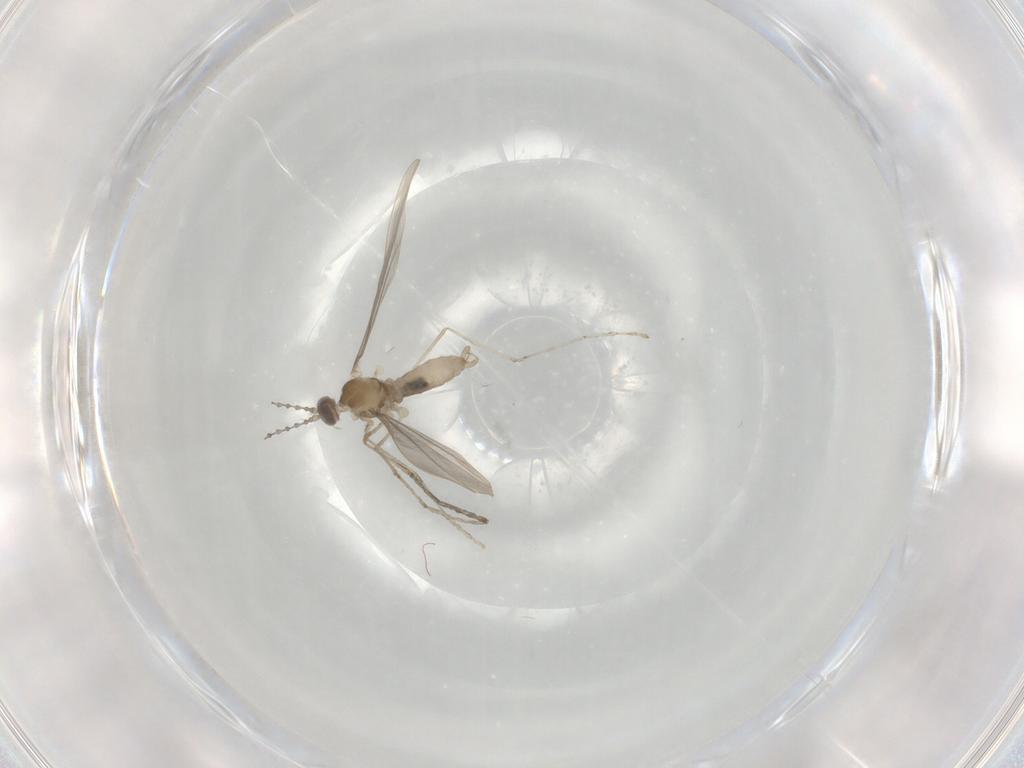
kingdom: Animalia
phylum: Arthropoda
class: Insecta
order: Diptera
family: Cecidomyiidae
